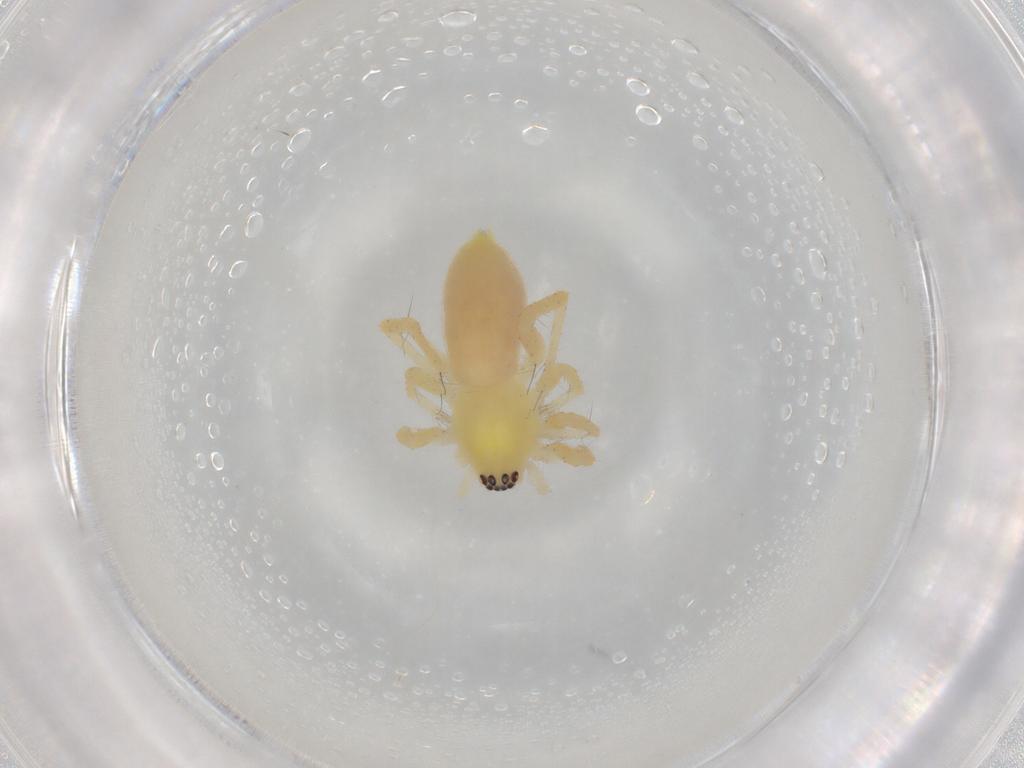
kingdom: Animalia
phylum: Arthropoda
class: Arachnida
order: Araneae
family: Anyphaenidae
